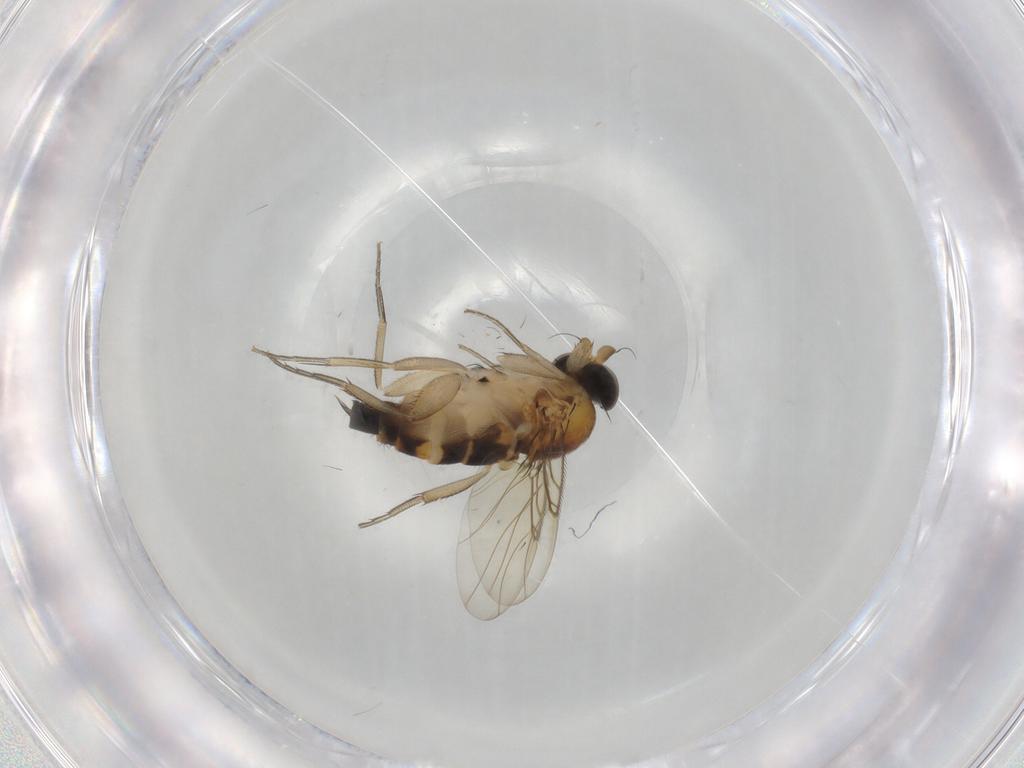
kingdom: Animalia
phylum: Arthropoda
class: Insecta
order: Diptera
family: Phoridae
